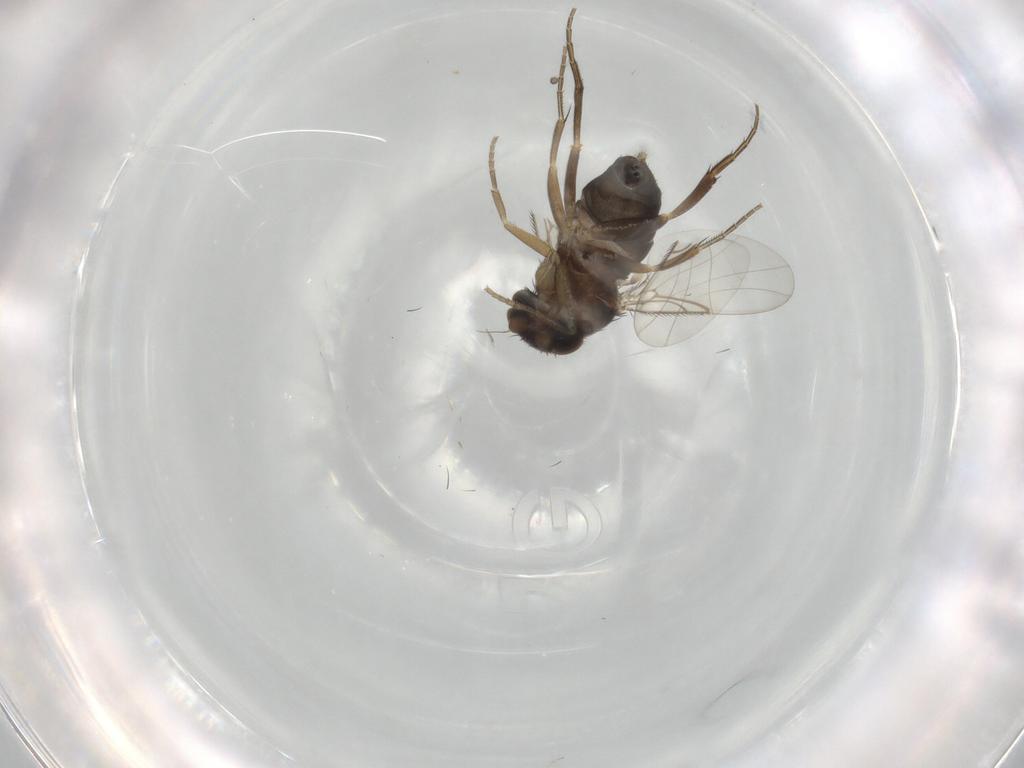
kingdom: Animalia
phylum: Arthropoda
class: Insecta
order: Diptera
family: Phoridae
